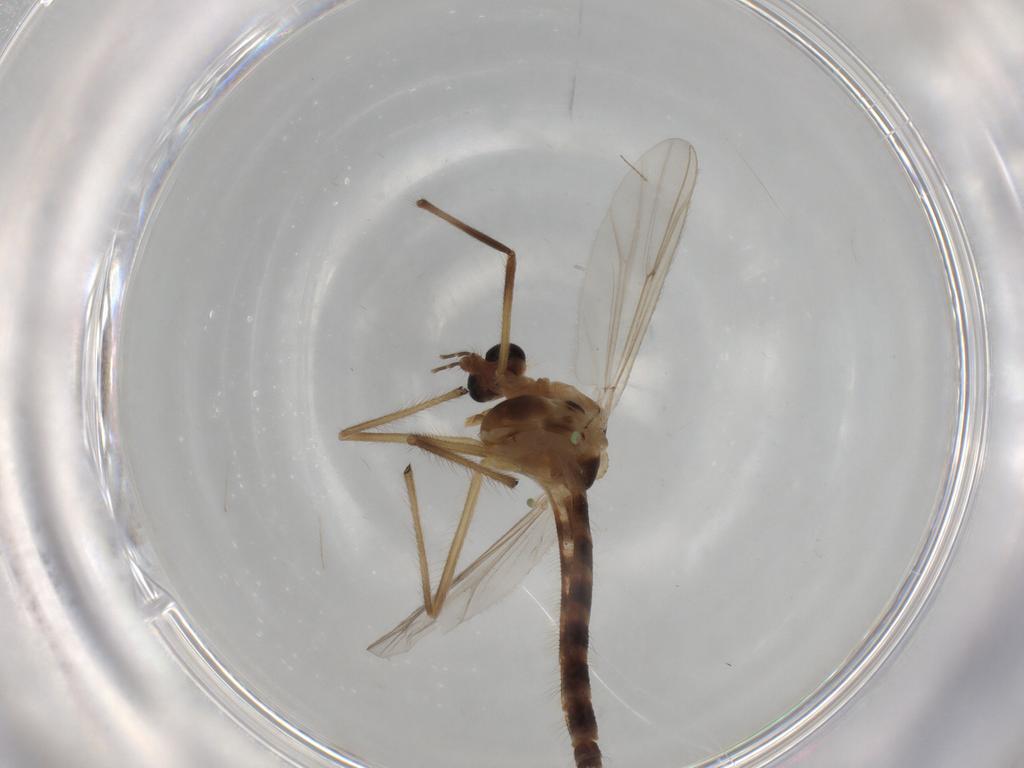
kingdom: Animalia
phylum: Arthropoda
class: Insecta
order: Diptera
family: Chironomidae
